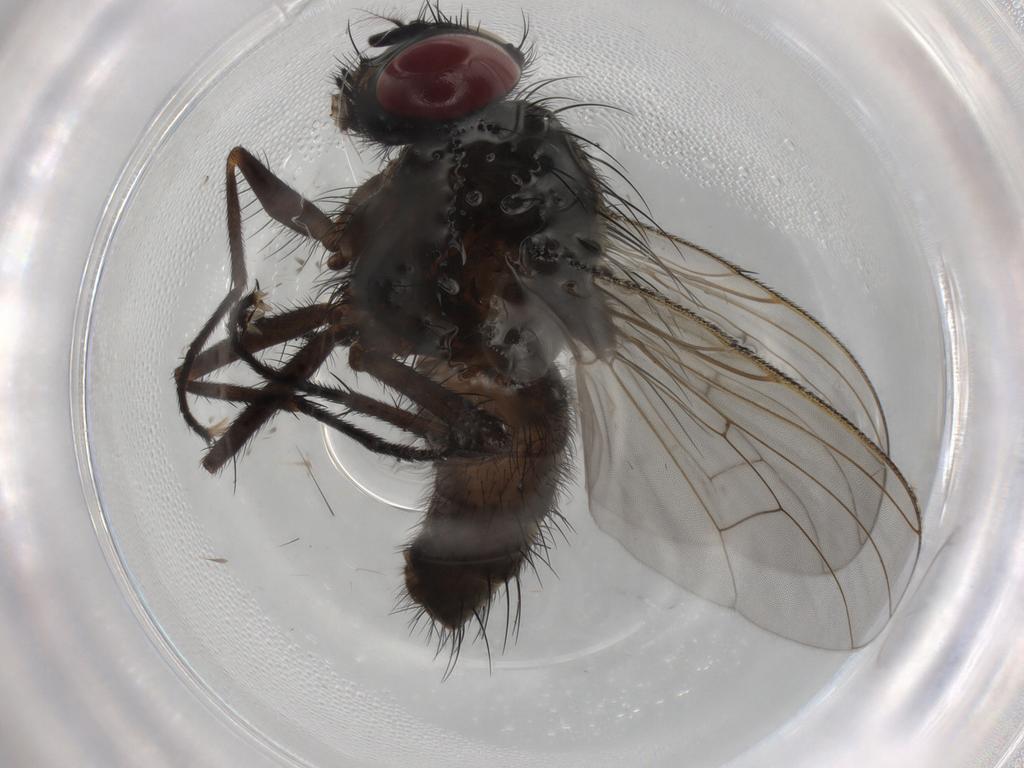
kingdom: Animalia
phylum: Arthropoda
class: Insecta
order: Diptera
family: Muscidae
